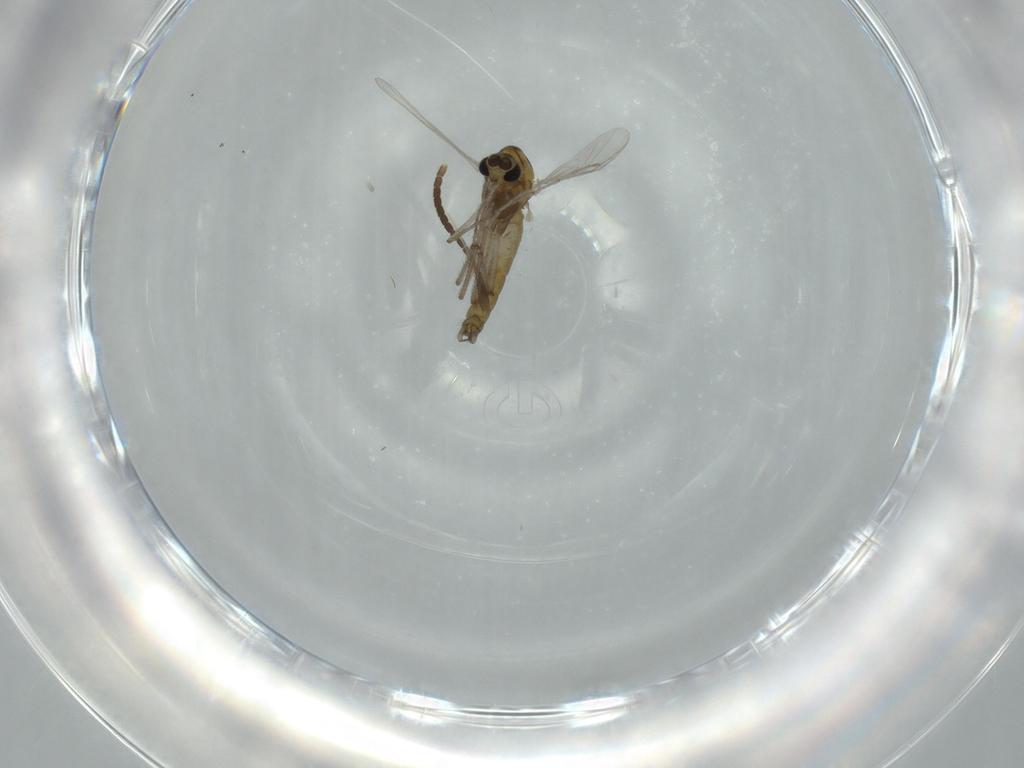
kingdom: Animalia
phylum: Arthropoda
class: Insecta
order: Diptera
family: Chironomidae
